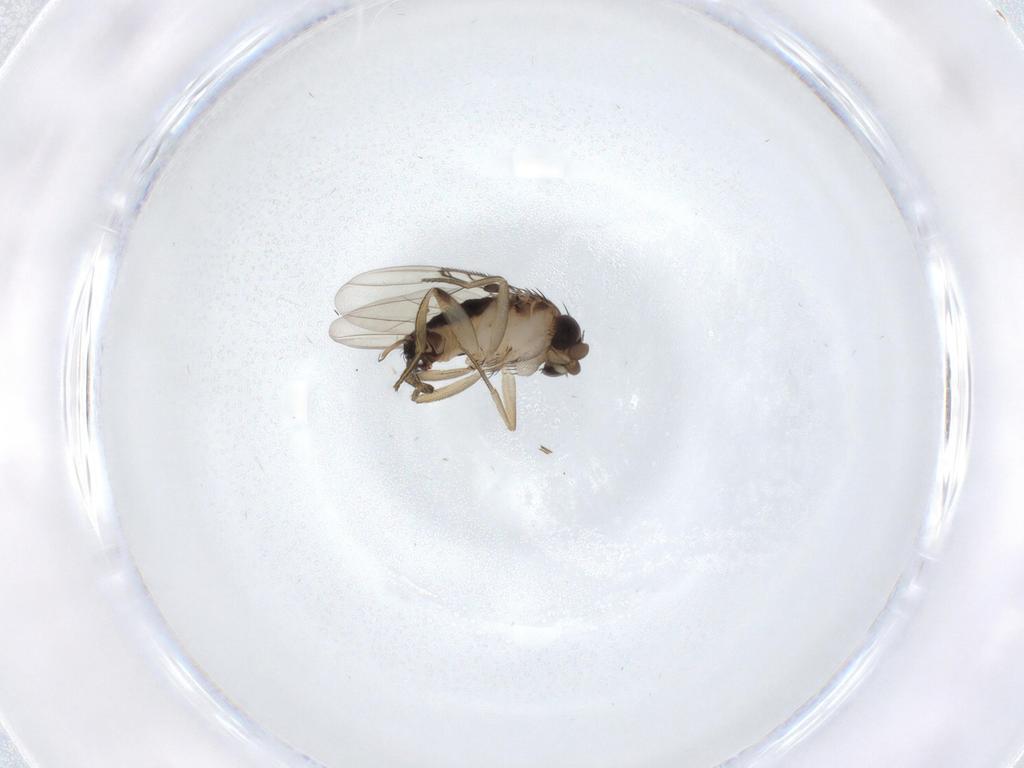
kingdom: Animalia
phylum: Arthropoda
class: Insecta
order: Diptera
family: Phoridae
